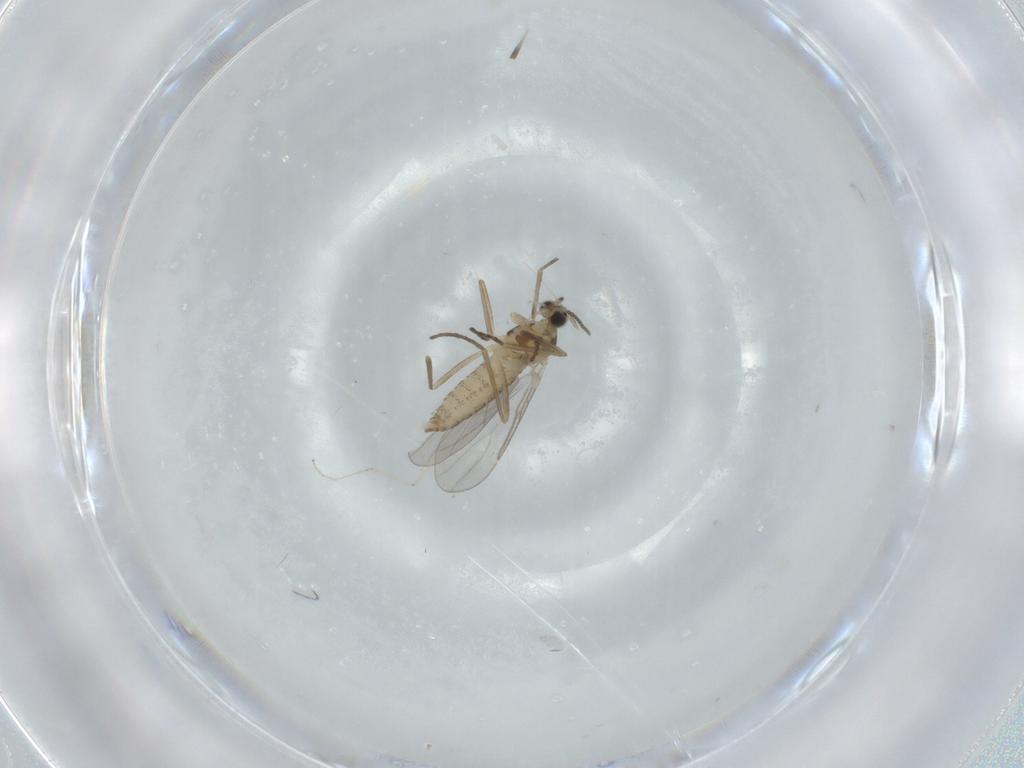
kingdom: Animalia
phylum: Arthropoda
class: Insecta
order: Diptera
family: Cecidomyiidae
